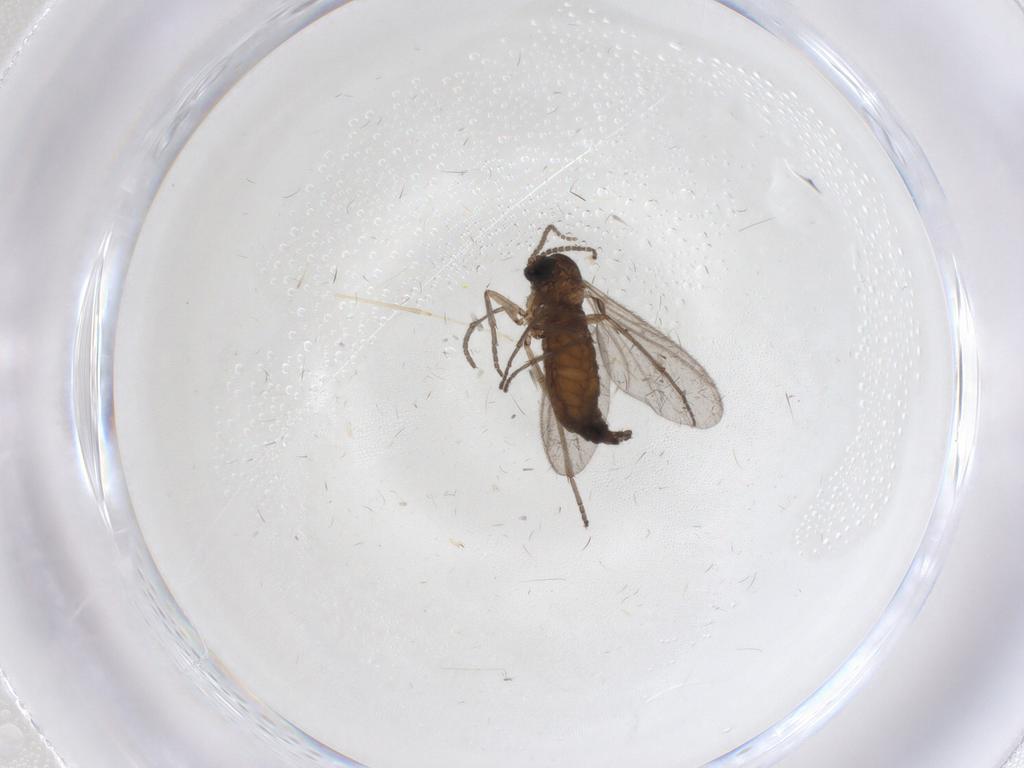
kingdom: Animalia
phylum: Arthropoda
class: Insecta
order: Diptera
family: Sciaridae
